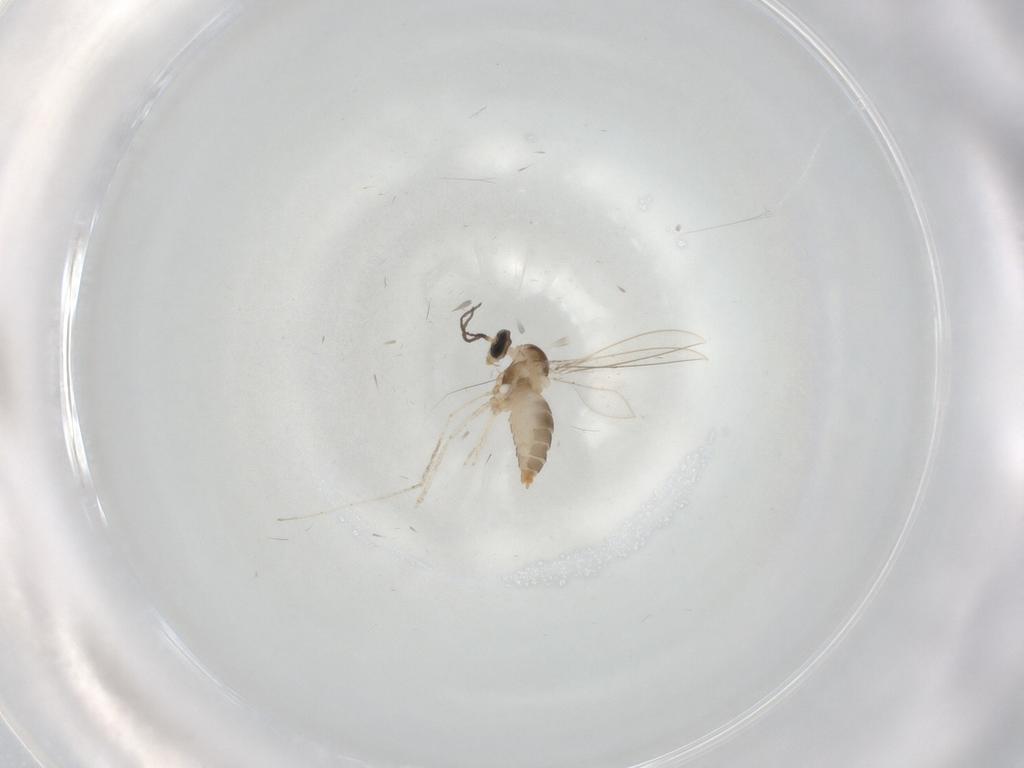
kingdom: Animalia
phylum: Arthropoda
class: Insecta
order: Diptera
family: Cecidomyiidae
